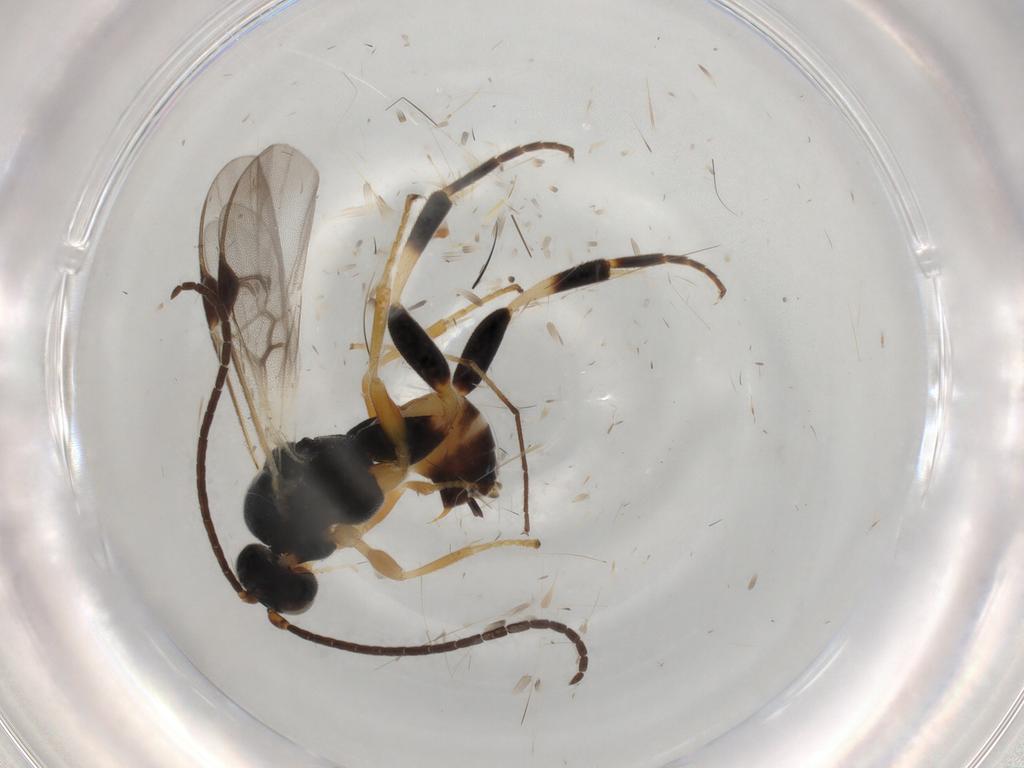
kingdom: Animalia
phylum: Arthropoda
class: Insecta
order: Hymenoptera
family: Braconidae
